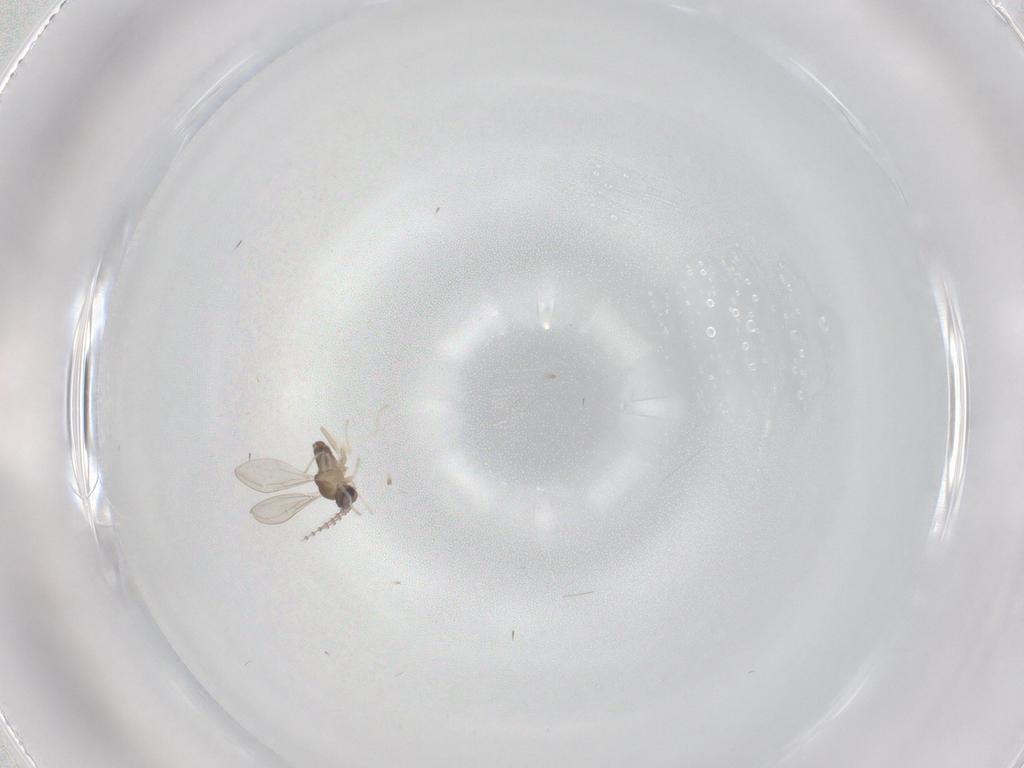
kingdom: Animalia
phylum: Arthropoda
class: Insecta
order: Diptera
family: Cecidomyiidae
